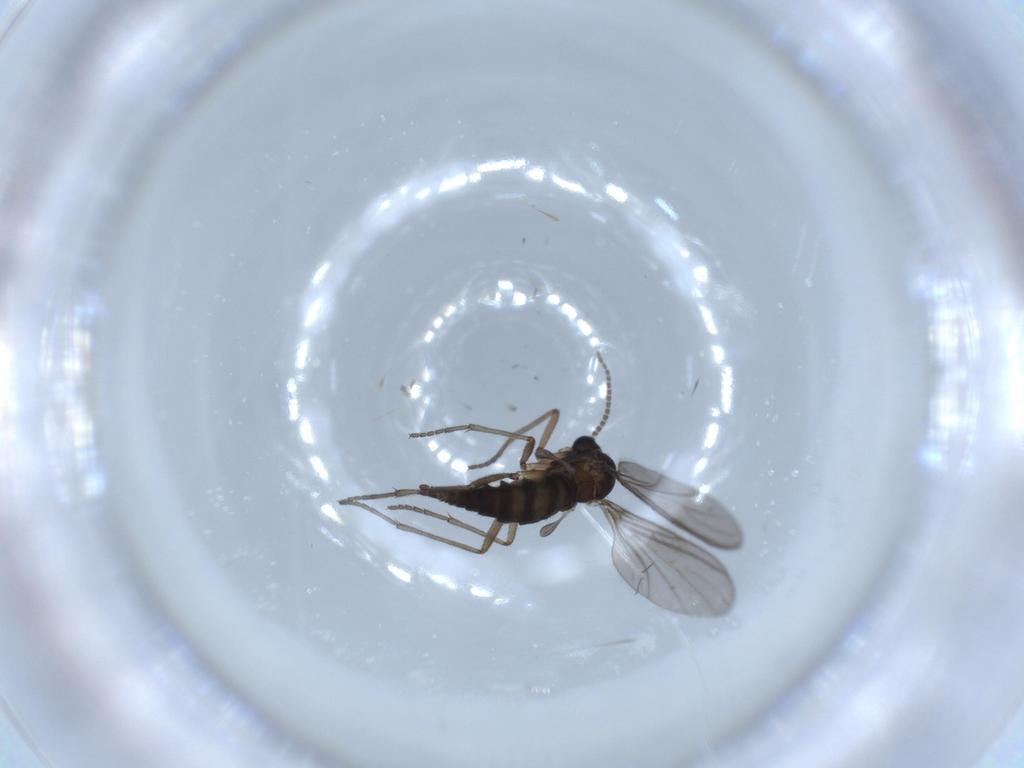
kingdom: Animalia
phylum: Arthropoda
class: Insecta
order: Diptera
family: Sciaridae
